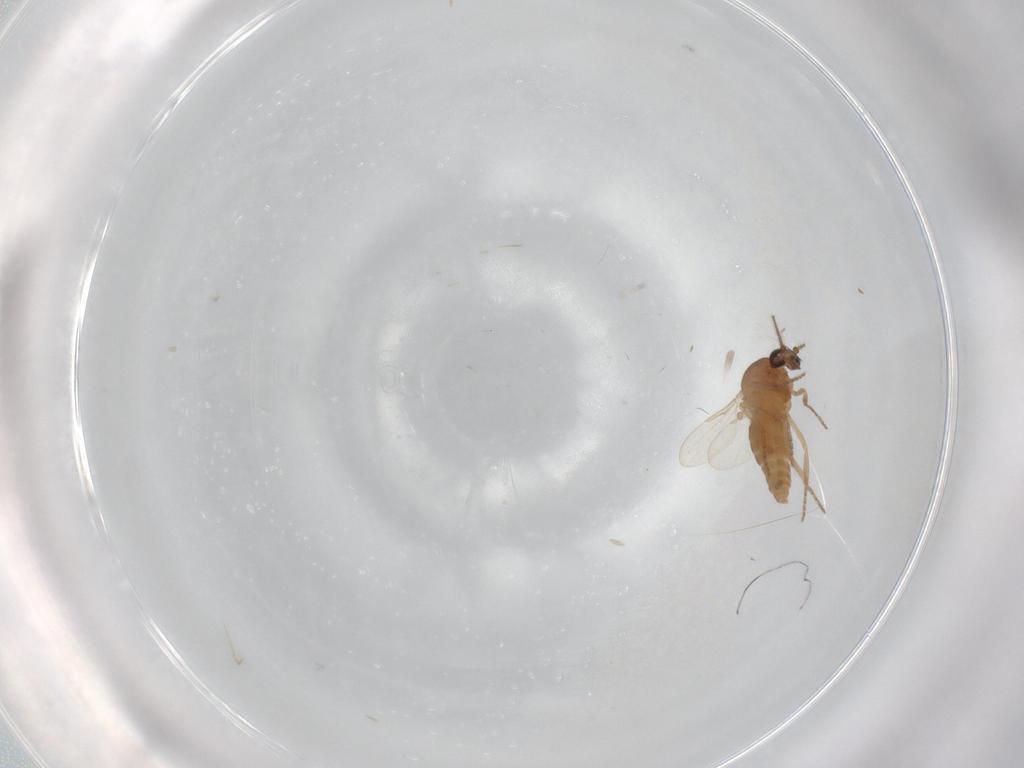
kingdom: Animalia
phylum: Arthropoda
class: Insecta
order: Diptera
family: Ceratopogonidae
